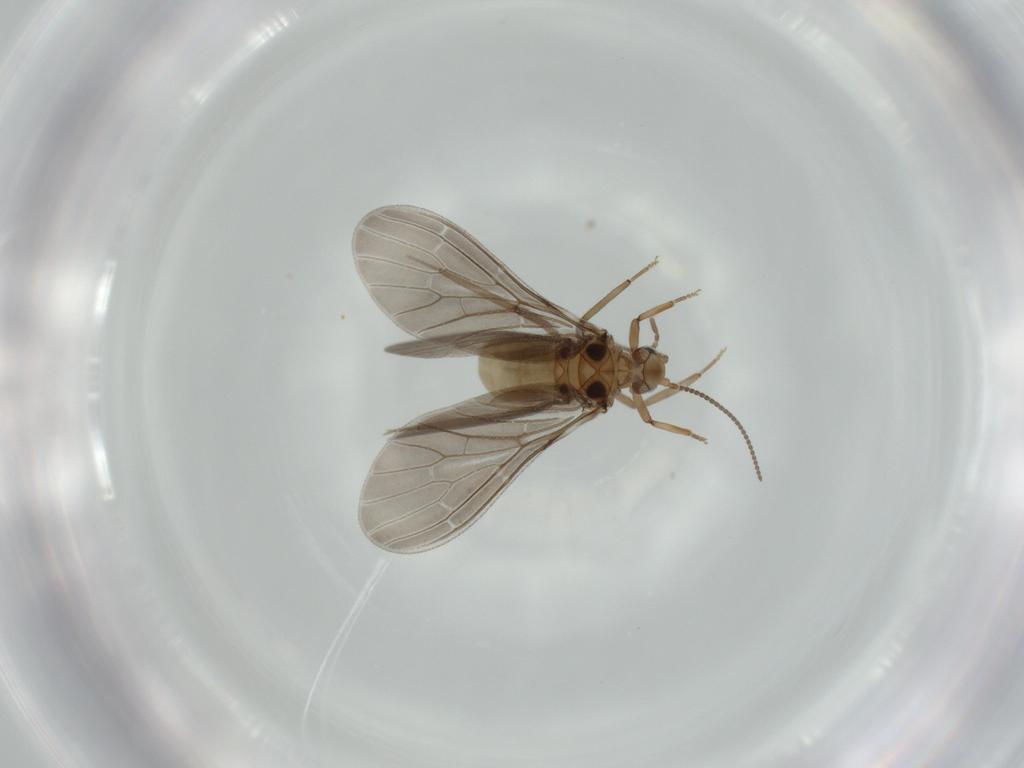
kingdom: Animalia
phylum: Arthropoda
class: Insecta
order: Neuroptera
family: Coniopterygidae
